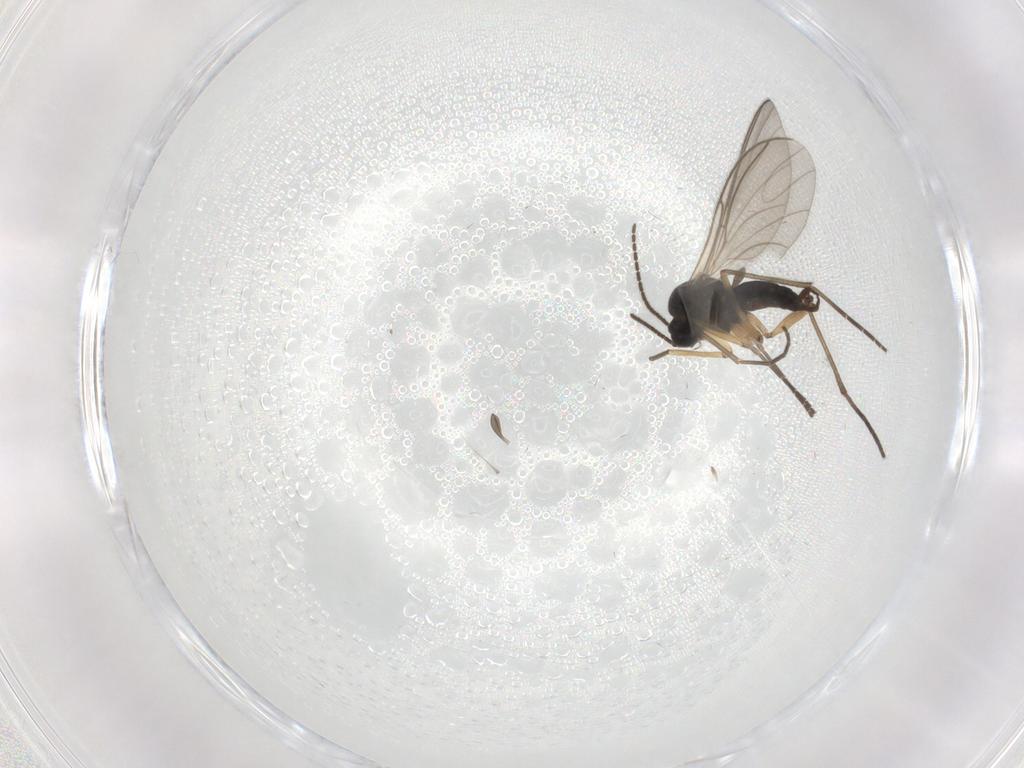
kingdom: Animalia
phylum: Arthropoda
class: Insecta
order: Diptera
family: Sciaridae
